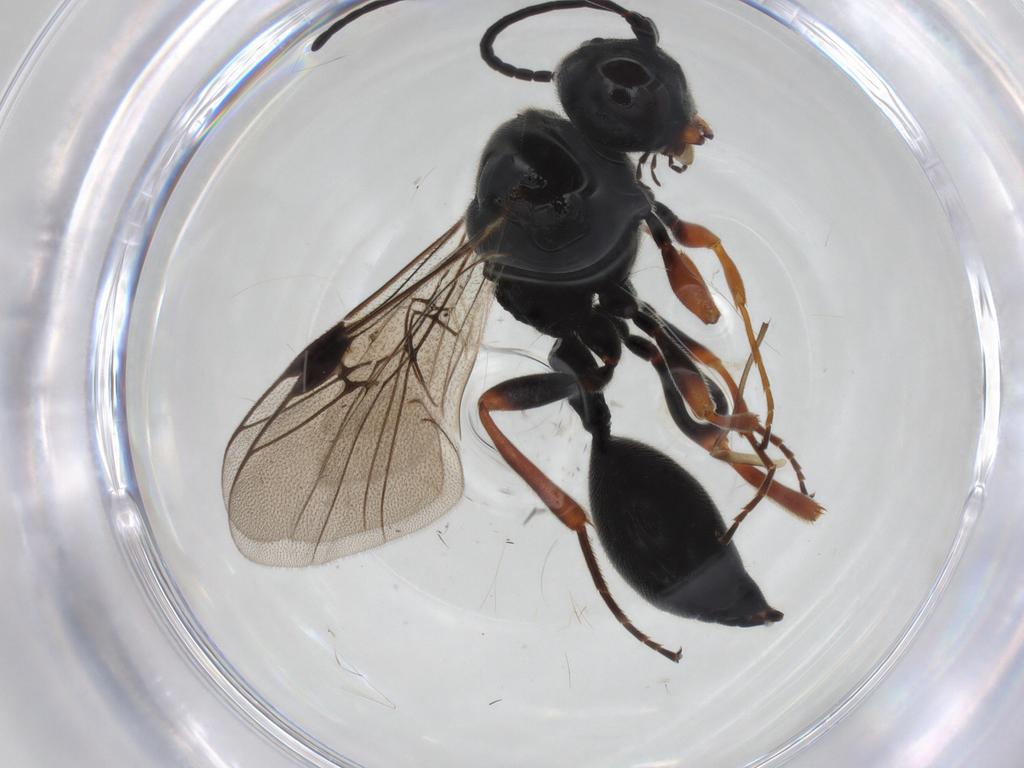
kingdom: Animalia
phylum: Arthropoda
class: Insecta
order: Hymenoptera
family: Heloridae
